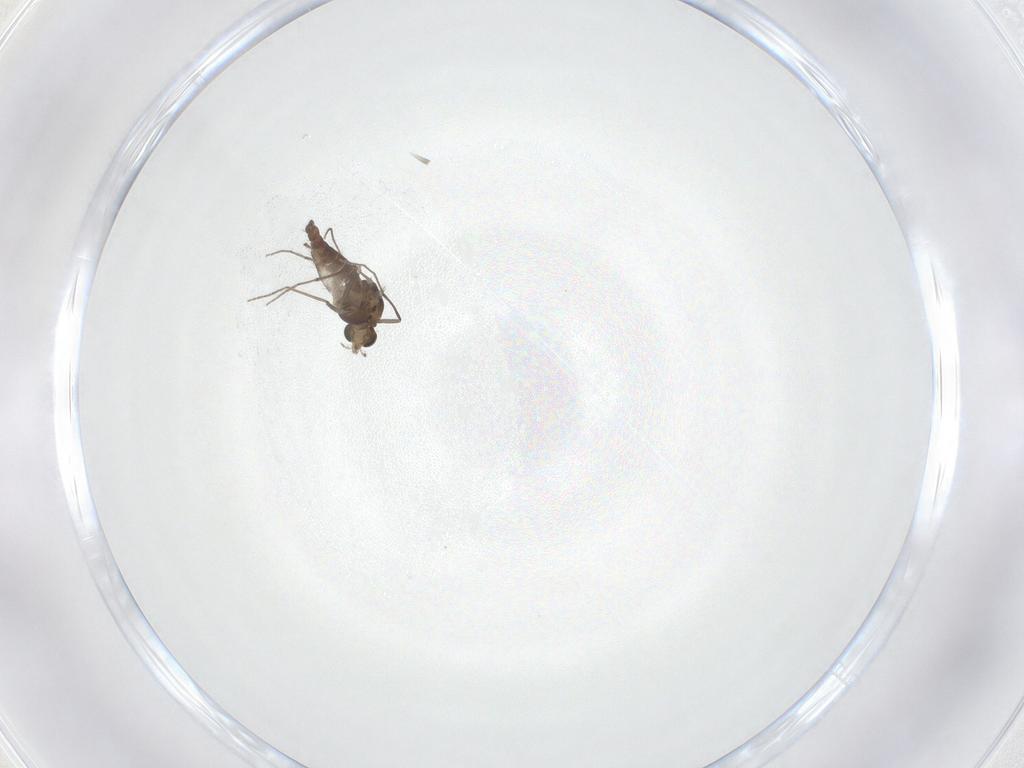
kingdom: Animalia
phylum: Arthropoda
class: Insecta
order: Diptera
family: Chironomidae
